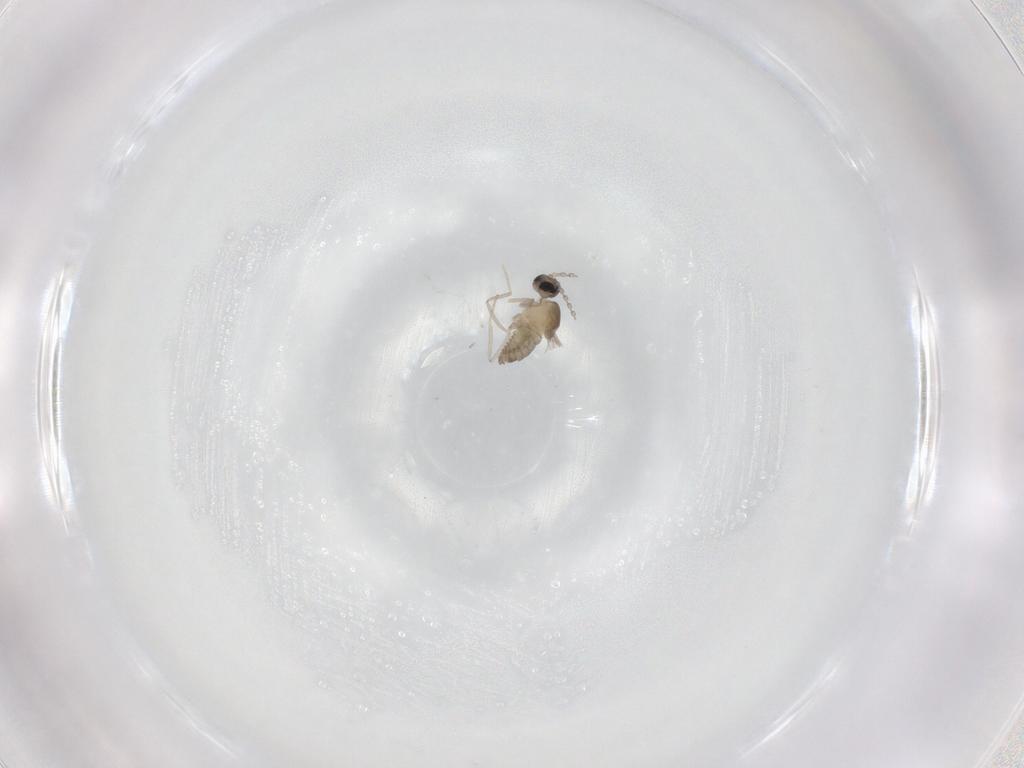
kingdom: Animalia
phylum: Arthropoda
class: Insecta
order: Diptera
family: Cecidomyiidae
